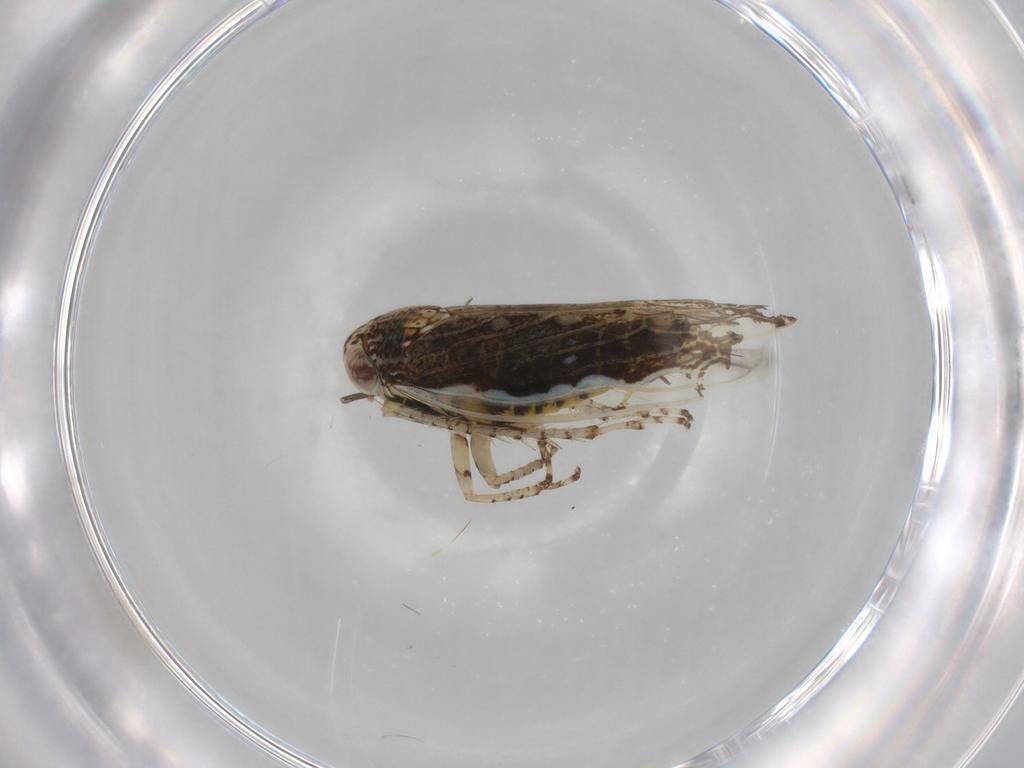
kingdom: Animalia
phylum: Arthropoda
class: Insecta
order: Hemiptera
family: Cicadellidae
